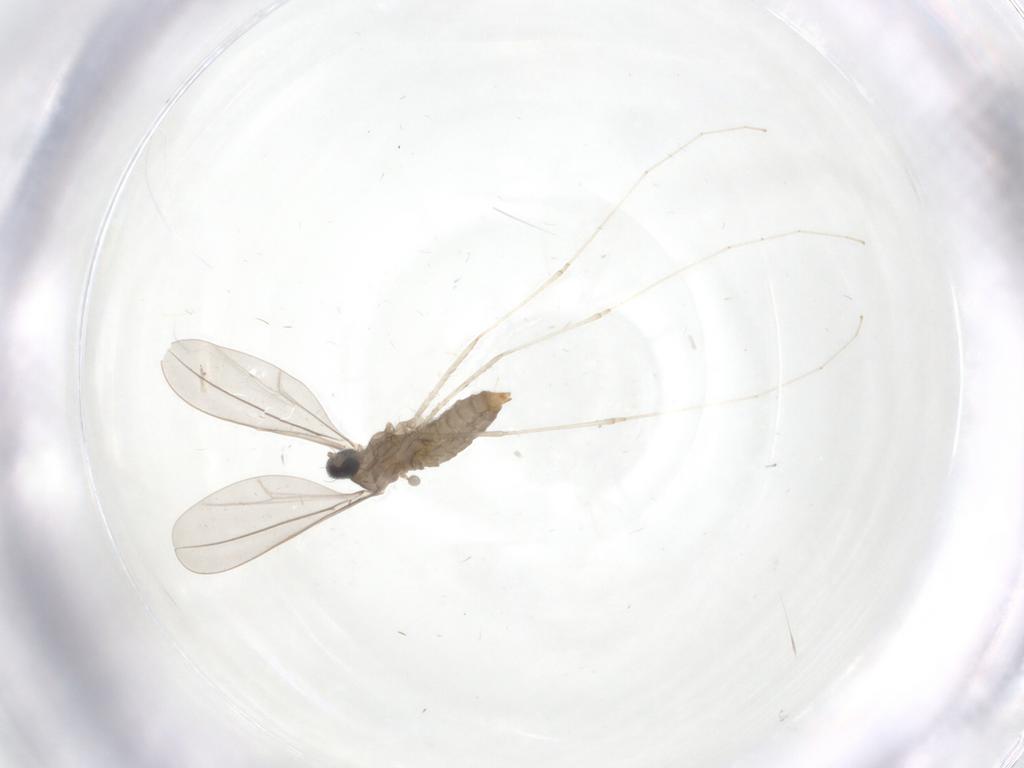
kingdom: Animalia
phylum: Arthropoda
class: Insecta
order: Diptera
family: Cecidomyiidae
